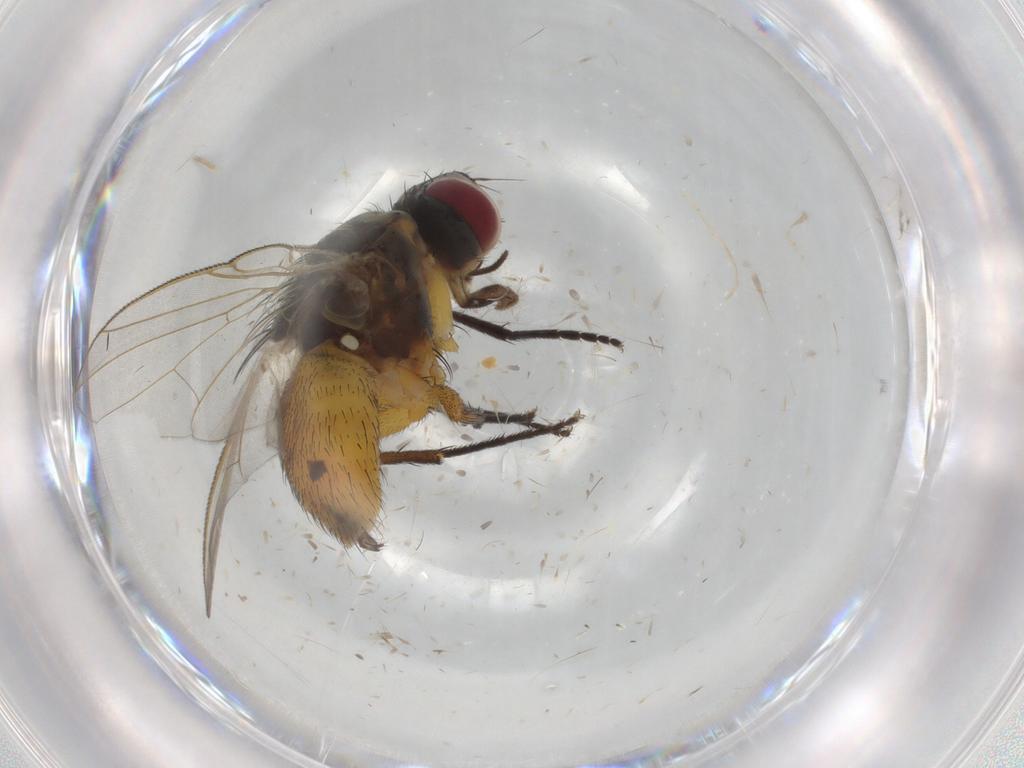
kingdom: Animalia
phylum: Arthropoda
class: Insecta
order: Diptera
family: Muscidae
